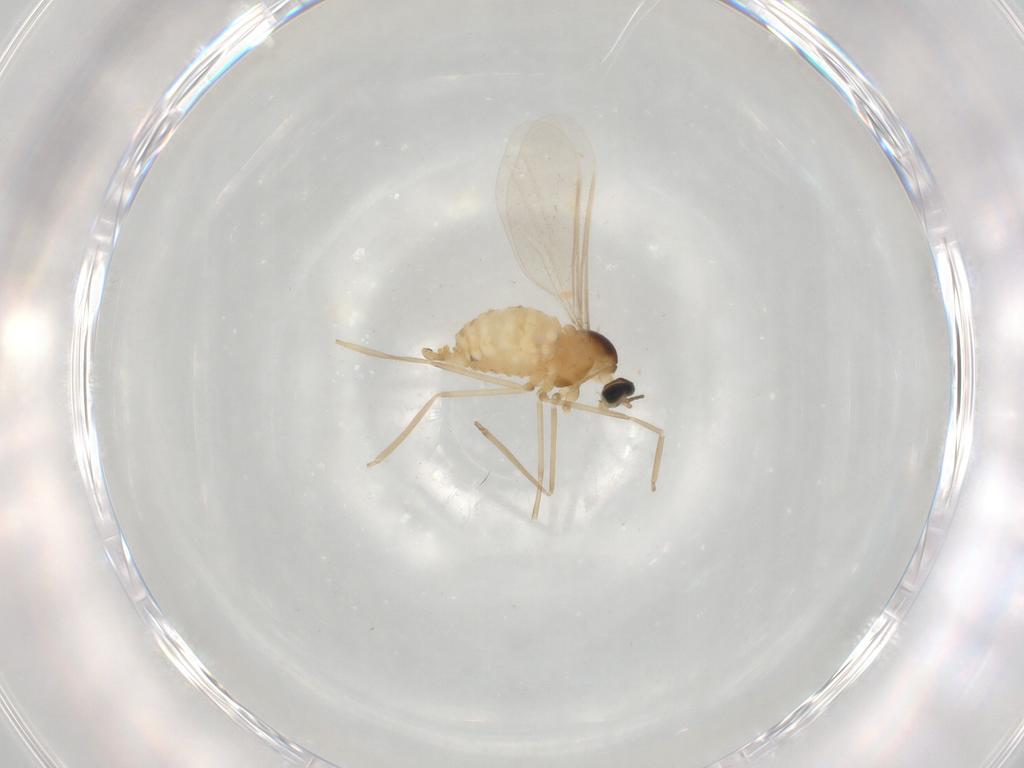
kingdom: Animalia
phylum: Arthropoda
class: Insecta
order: Diptera
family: Cecidomyiidae
